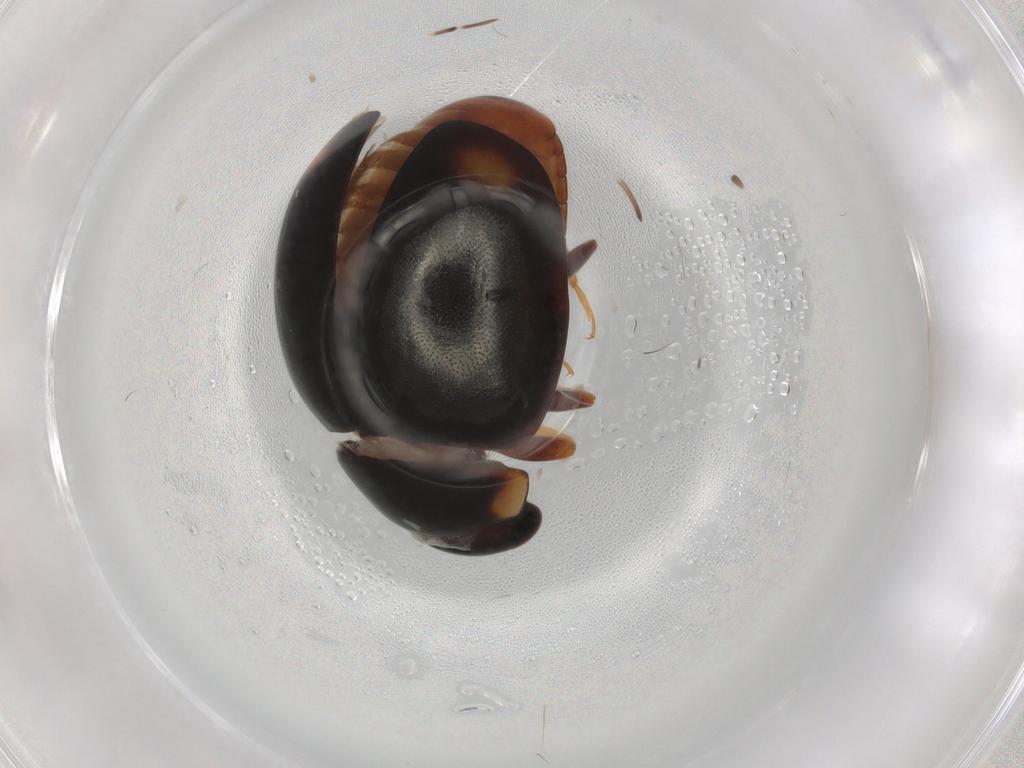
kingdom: Animalia
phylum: Arthropoda
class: Insecta
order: Coleoptera
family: Coccinellidae
